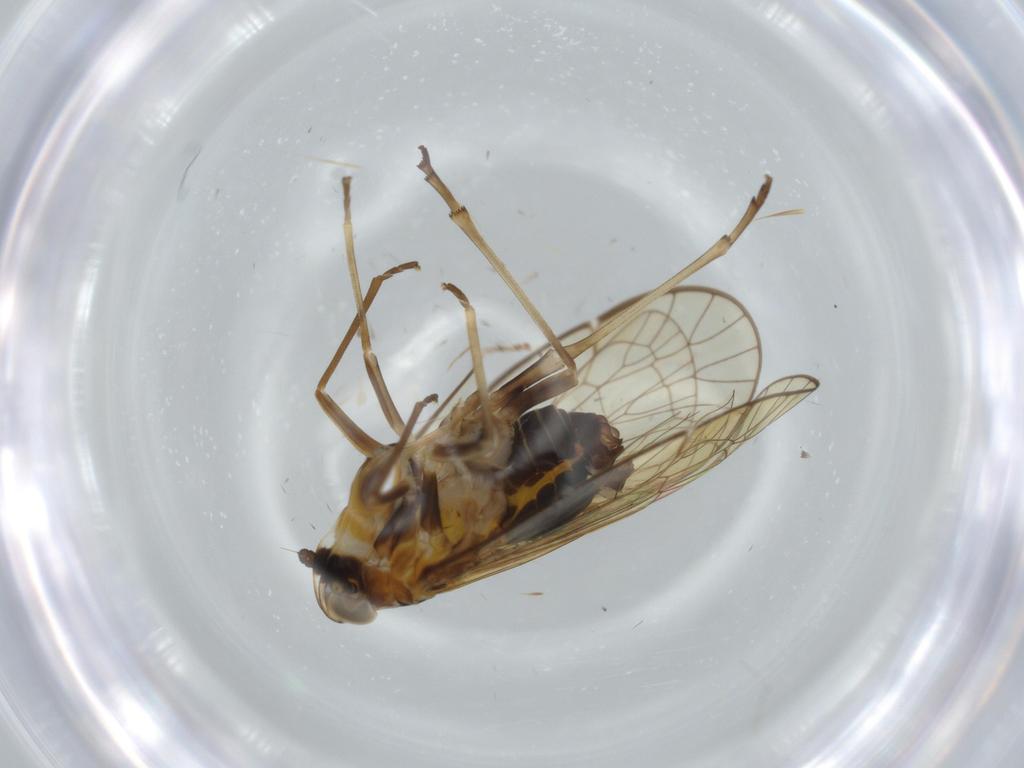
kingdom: Animalia
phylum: Arthropoda
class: Insecta
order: Hemiptera
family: Kinnaridae
